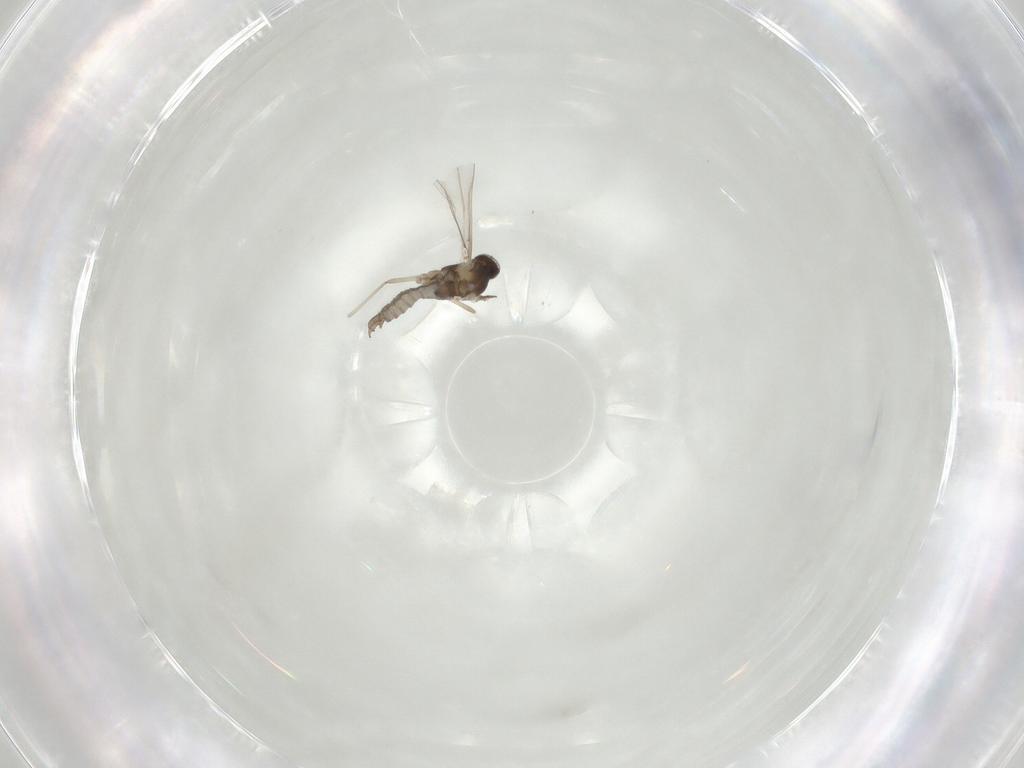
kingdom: Animalia
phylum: Arthropoda
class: Insecta
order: Diptera
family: Cecidomyiidae
